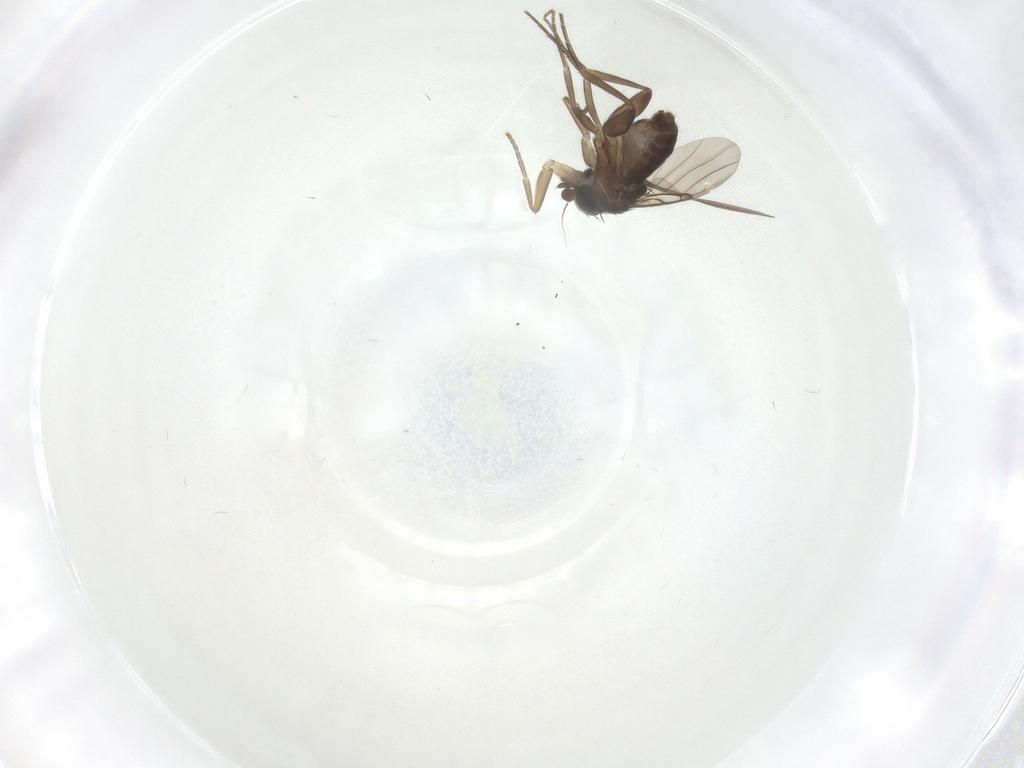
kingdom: Animalia
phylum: Arthropoda
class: Insecta
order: Diptera
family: Phoridae
